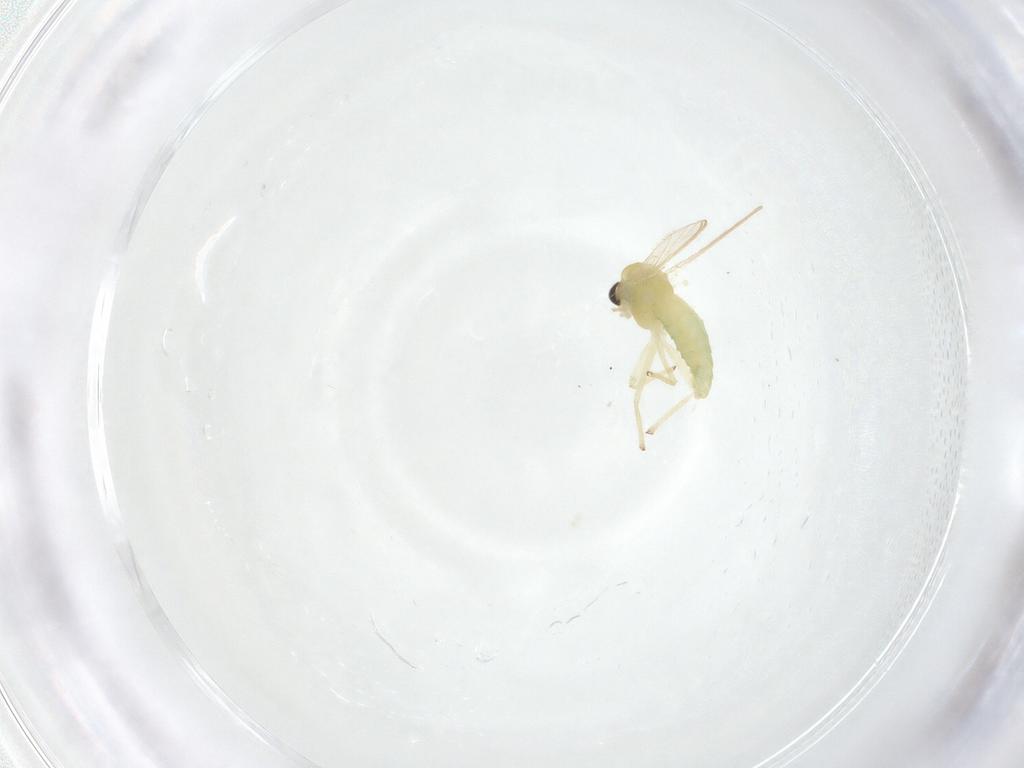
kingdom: Animalia
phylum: Arthropoda
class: Insecta
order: Diptera
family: Chironomidae
